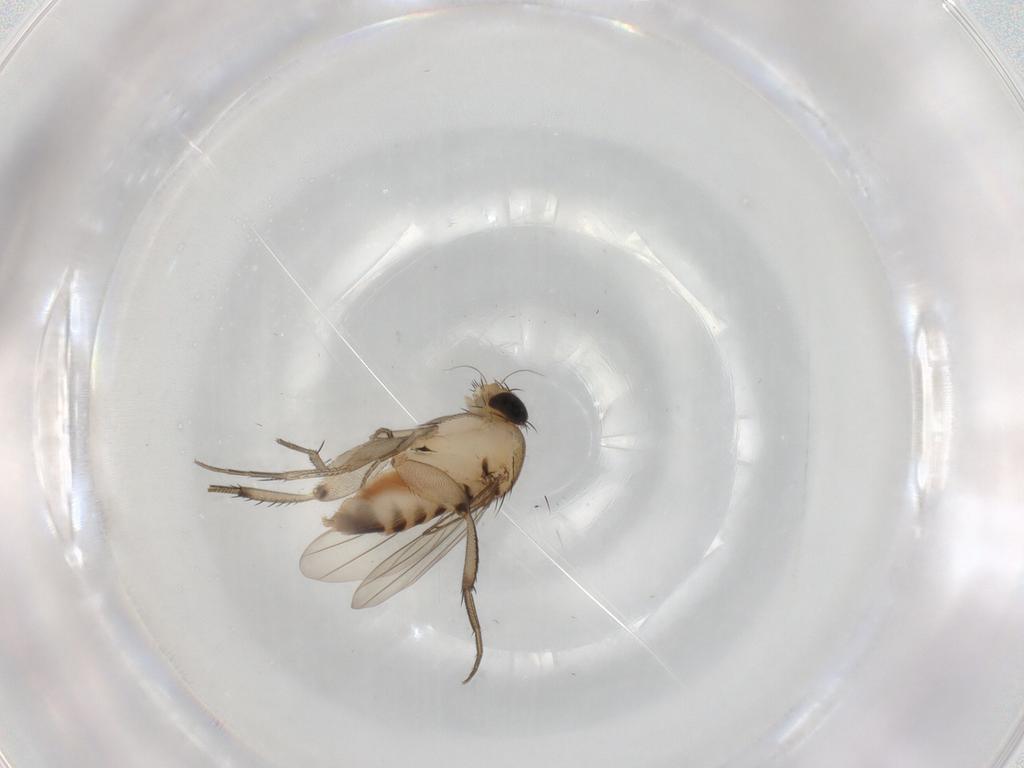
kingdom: Animalia
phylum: Arthropoda
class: Insecta
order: Diptera
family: Phoridae
